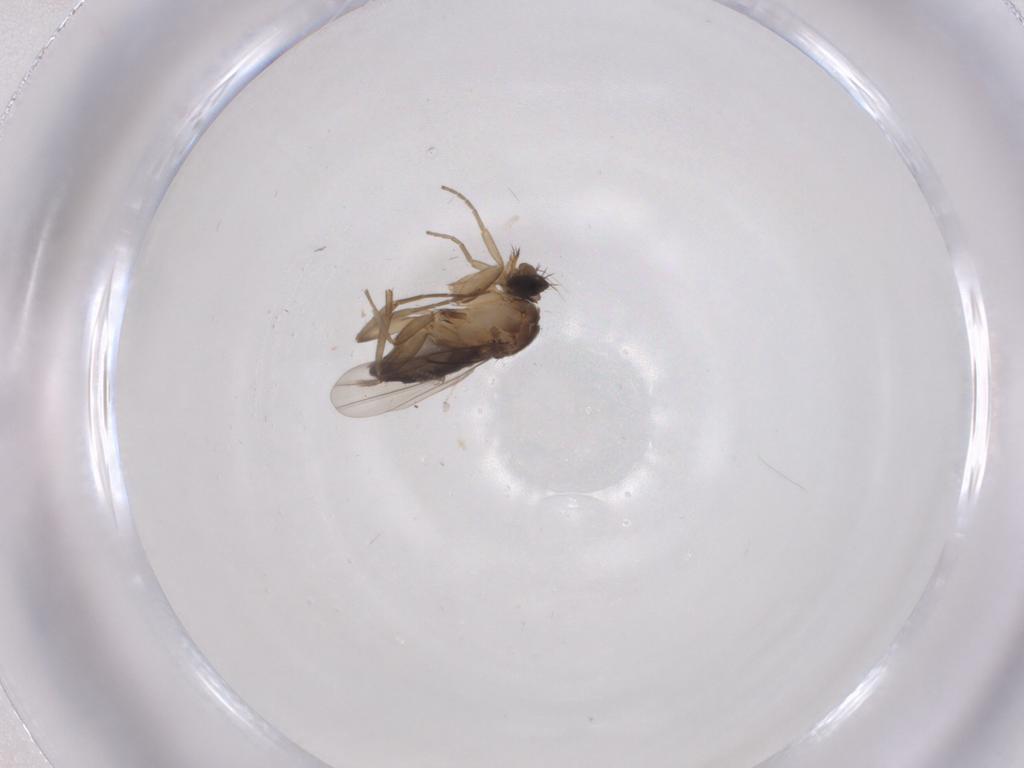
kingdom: Animalia
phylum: Arthropoda
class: Insecta
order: Diptera
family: Phoridae
